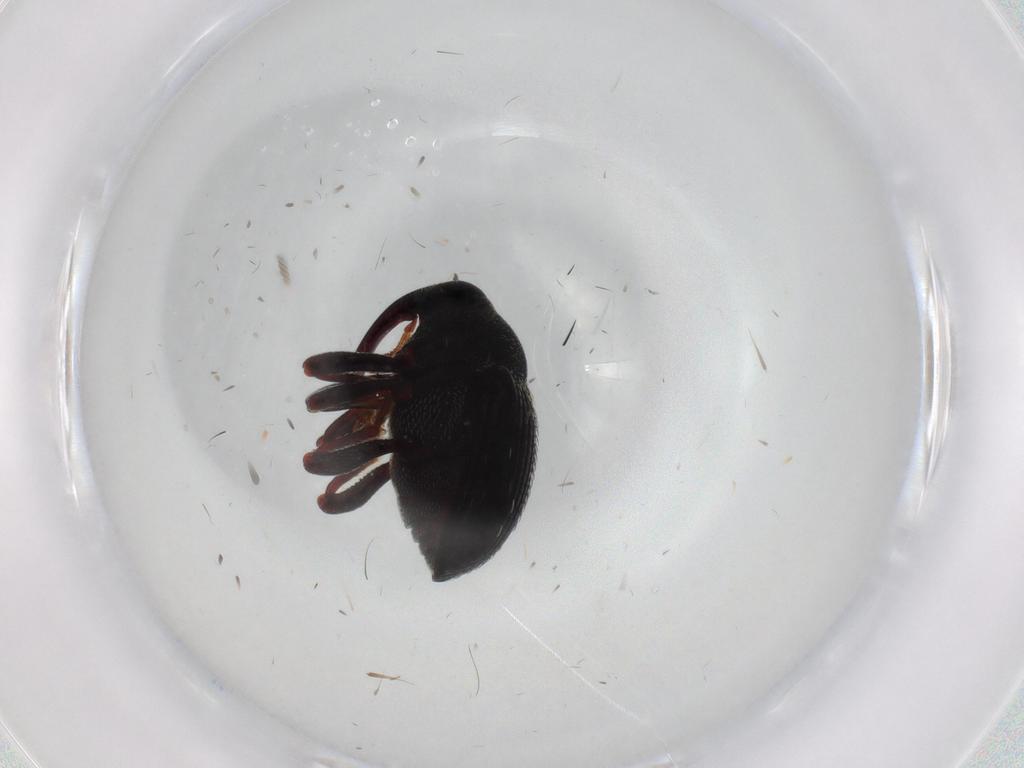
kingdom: Animalia
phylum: Arthropoda
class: Insecta
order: Coleoptera
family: Curculionidae
